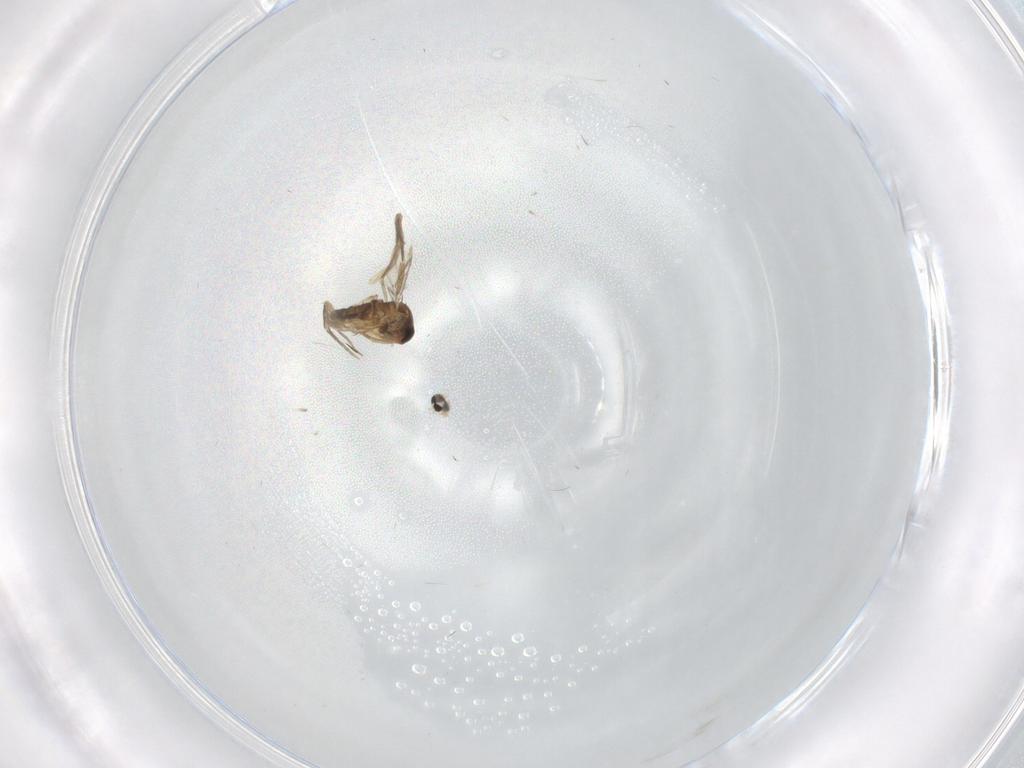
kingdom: Animalia
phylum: Arthropoda
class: Insecta
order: Diptera
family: Phoridae
